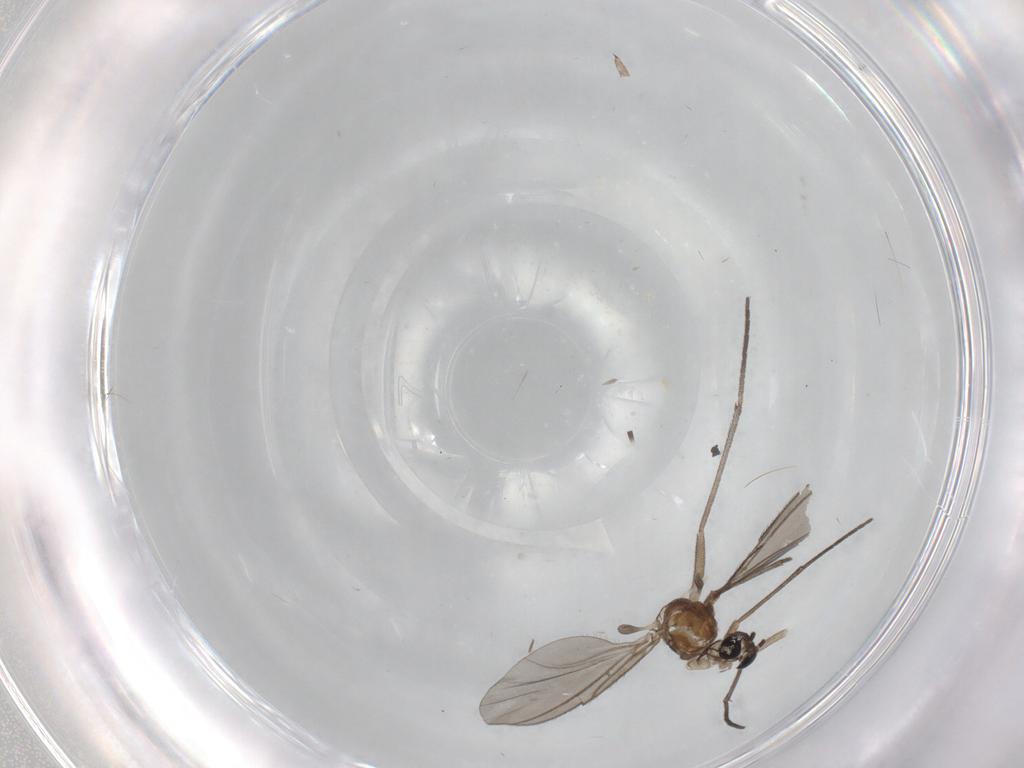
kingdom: Animalia
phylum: Arthropoda
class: Insecta
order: Diptera
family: Sciaridae
